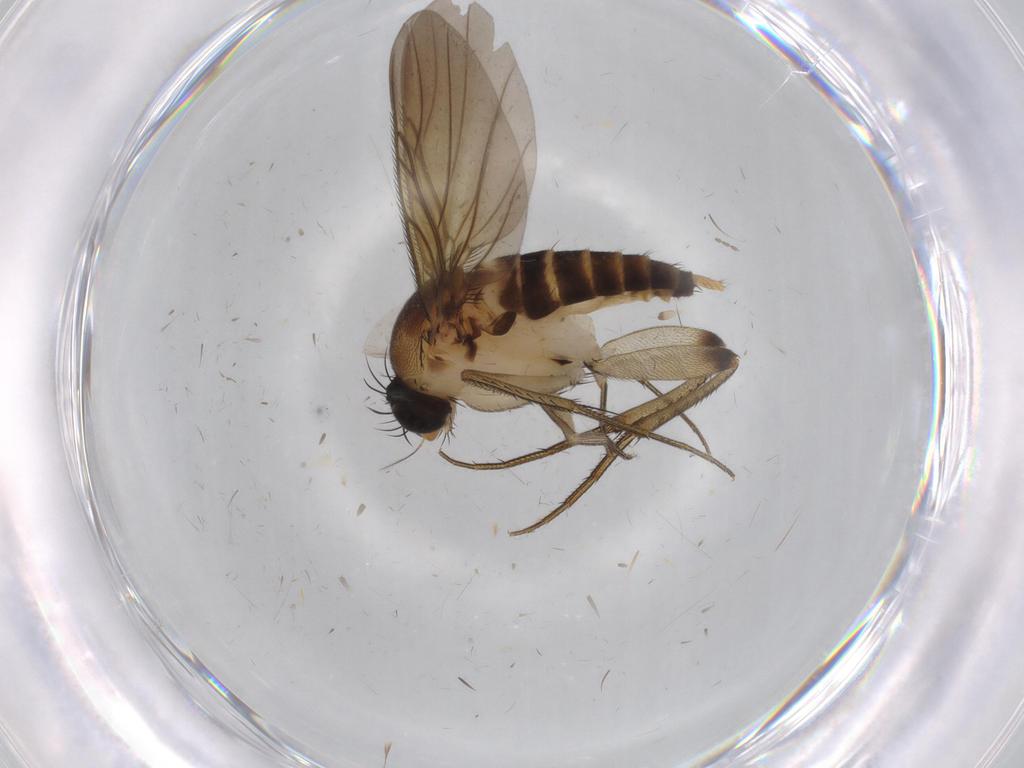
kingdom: Animalia
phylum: Arthropoda
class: Insecta
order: Diptera
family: Phoridae
